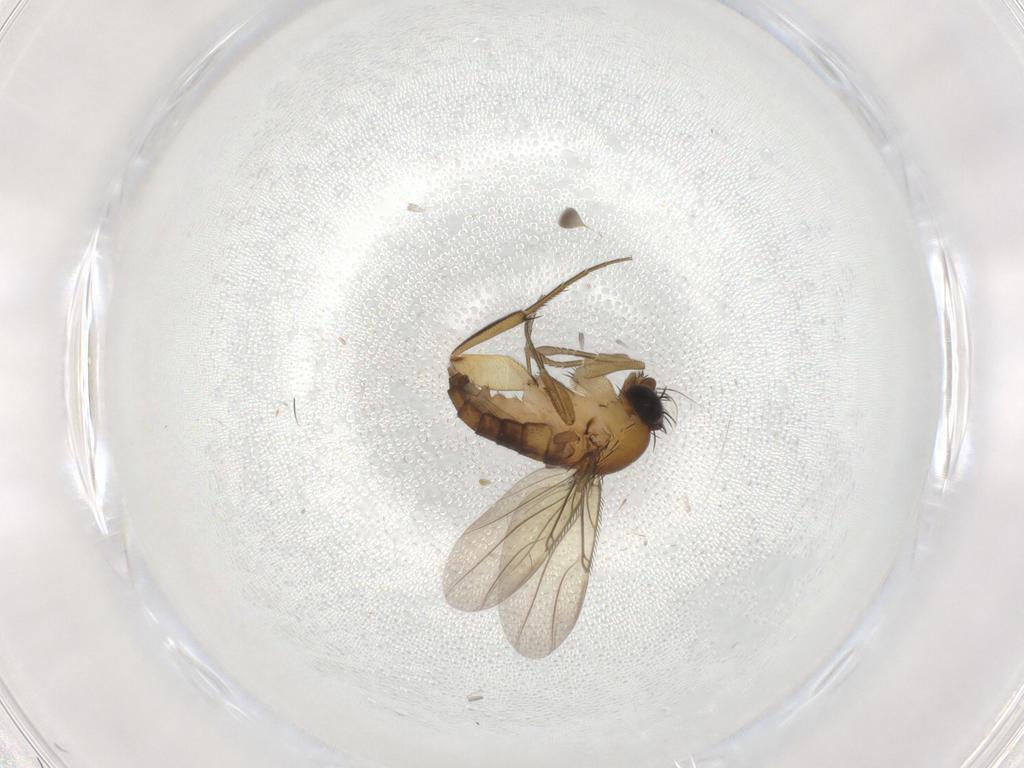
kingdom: Animalia
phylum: Arthropoda
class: Insecta
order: Diptera
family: Phoridae
